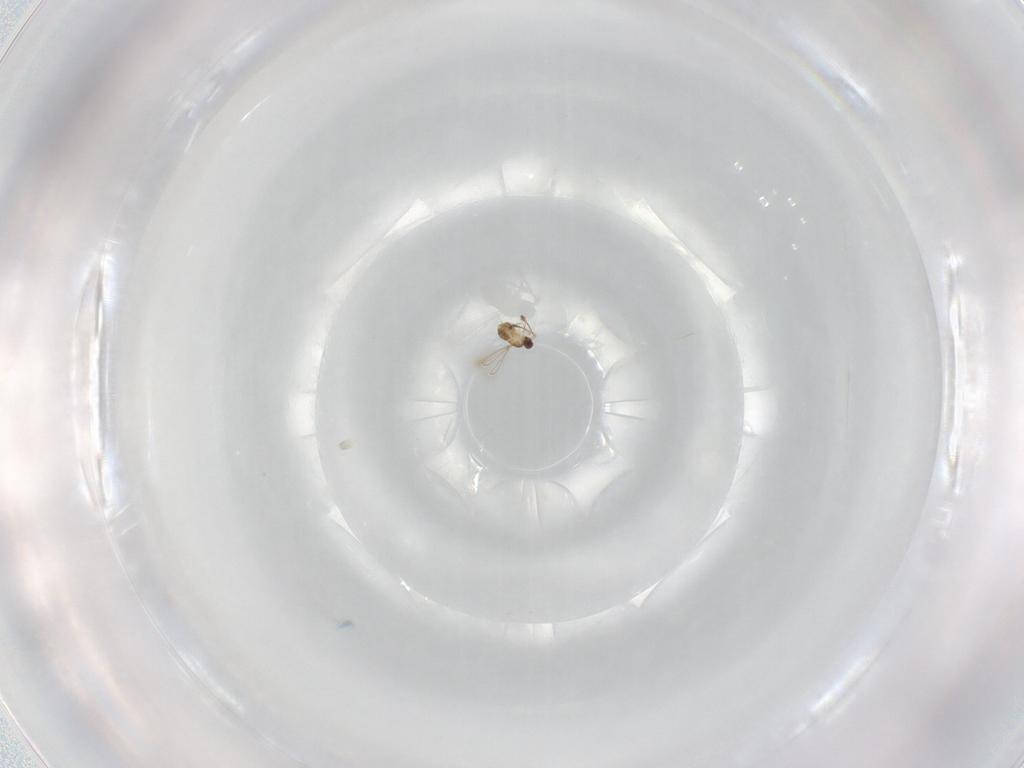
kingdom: Animalia
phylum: Arthropoda
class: Insecta
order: Hymenoptera
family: Mymaridae
